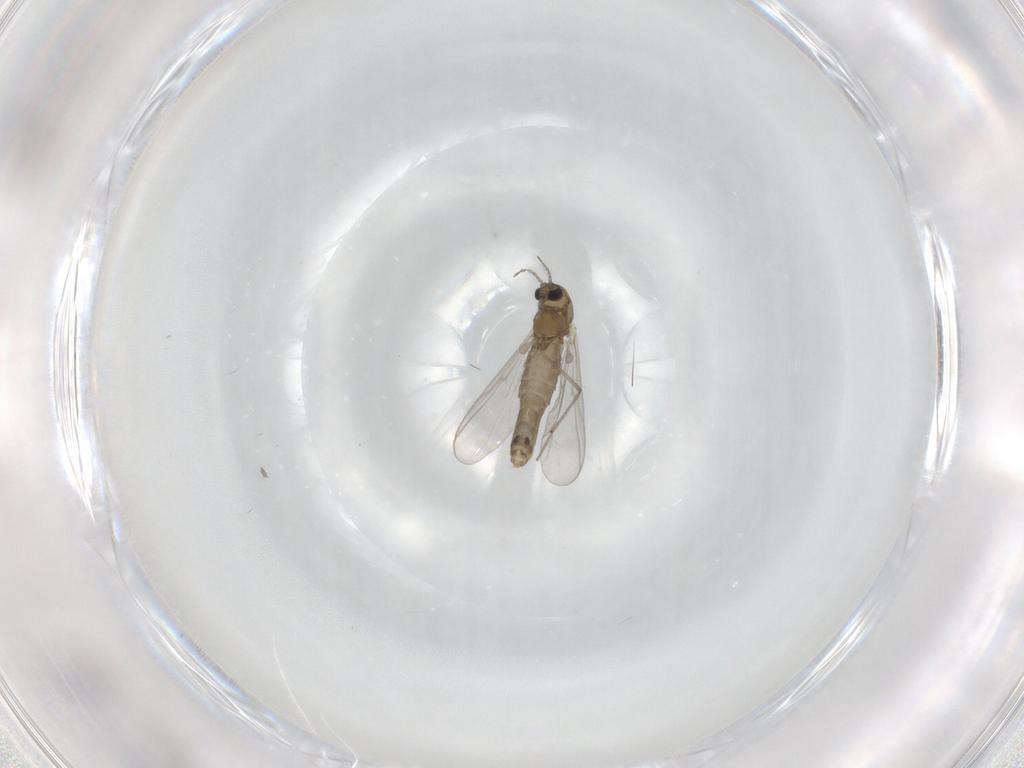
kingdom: Animalia
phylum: Arthropoda
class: Insecta
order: Diptera
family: Chironomidae
